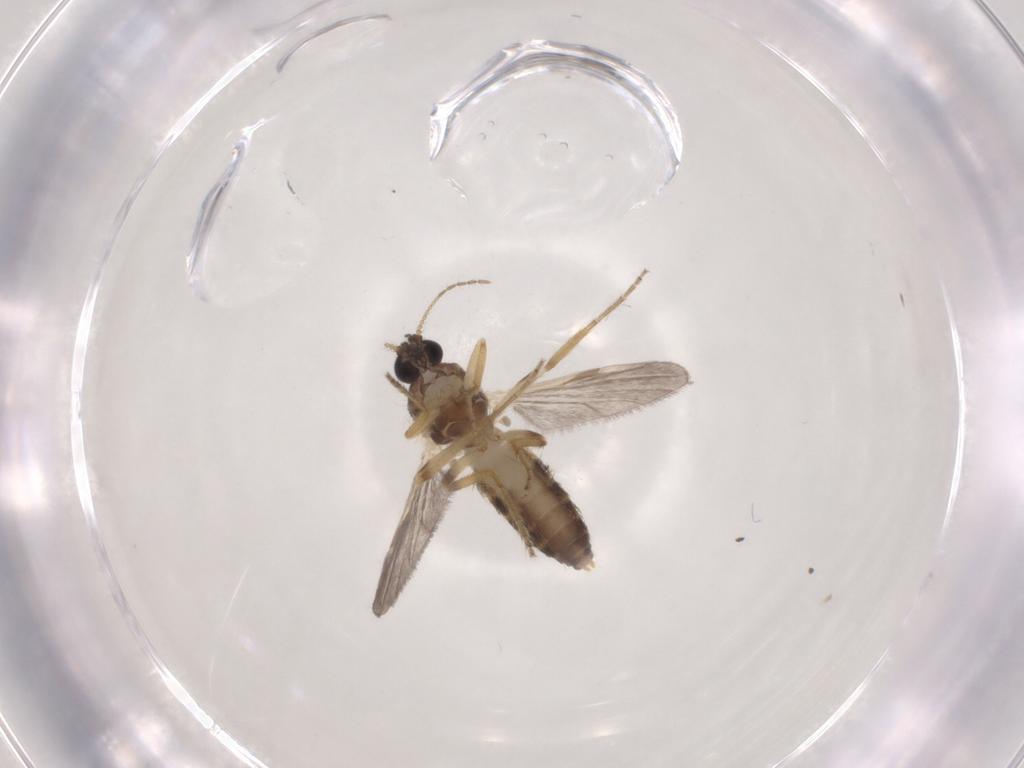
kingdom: Animalia
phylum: Arthropoda
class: Insecta
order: Diptera
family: Ceratopogonidae
